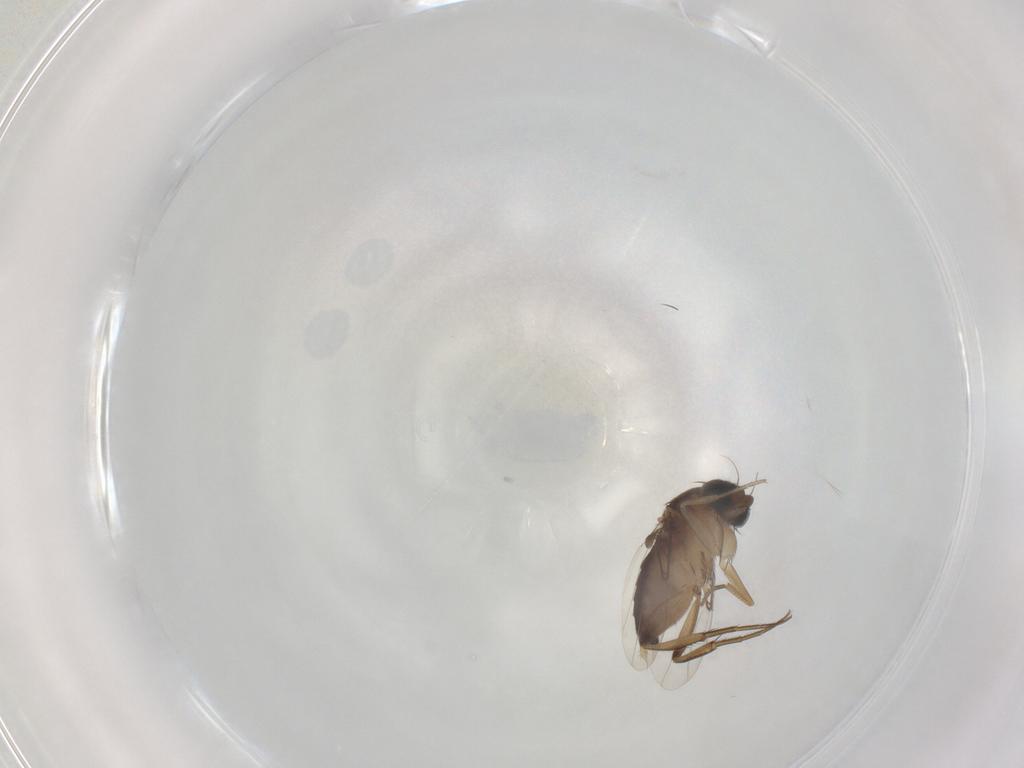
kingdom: Animalia
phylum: Arthropoda
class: Insecta
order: Diptera
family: Phoridae
